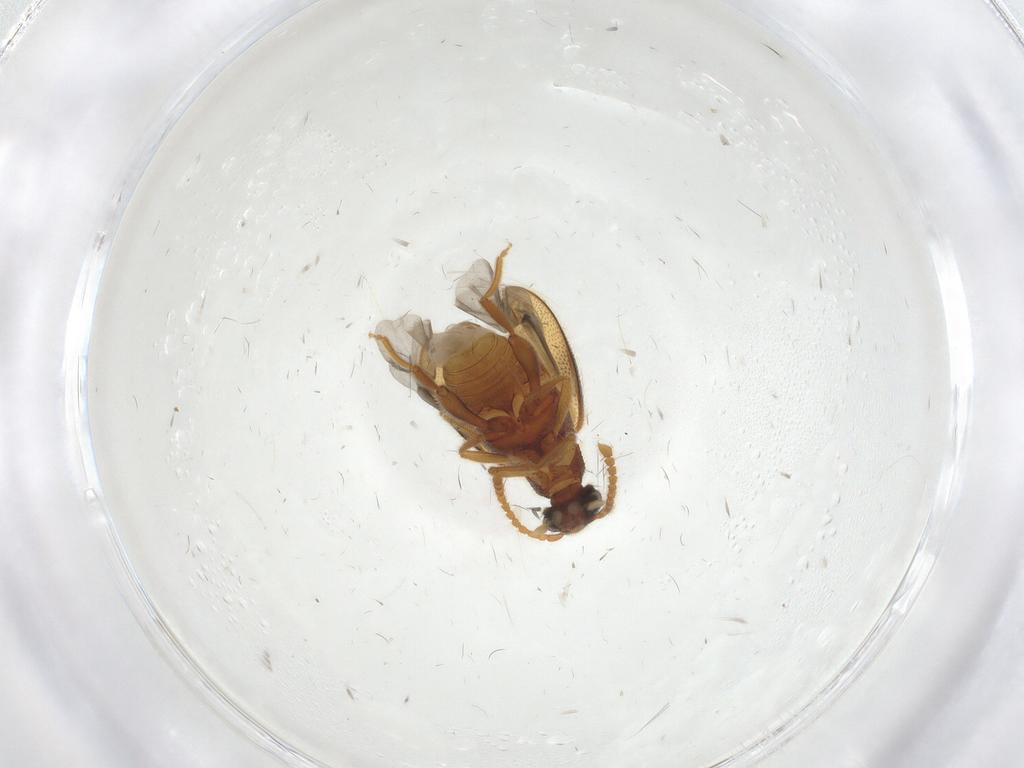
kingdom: Animalia
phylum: Arthropoda
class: Insecta
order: Coleoptera
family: Aderidae
